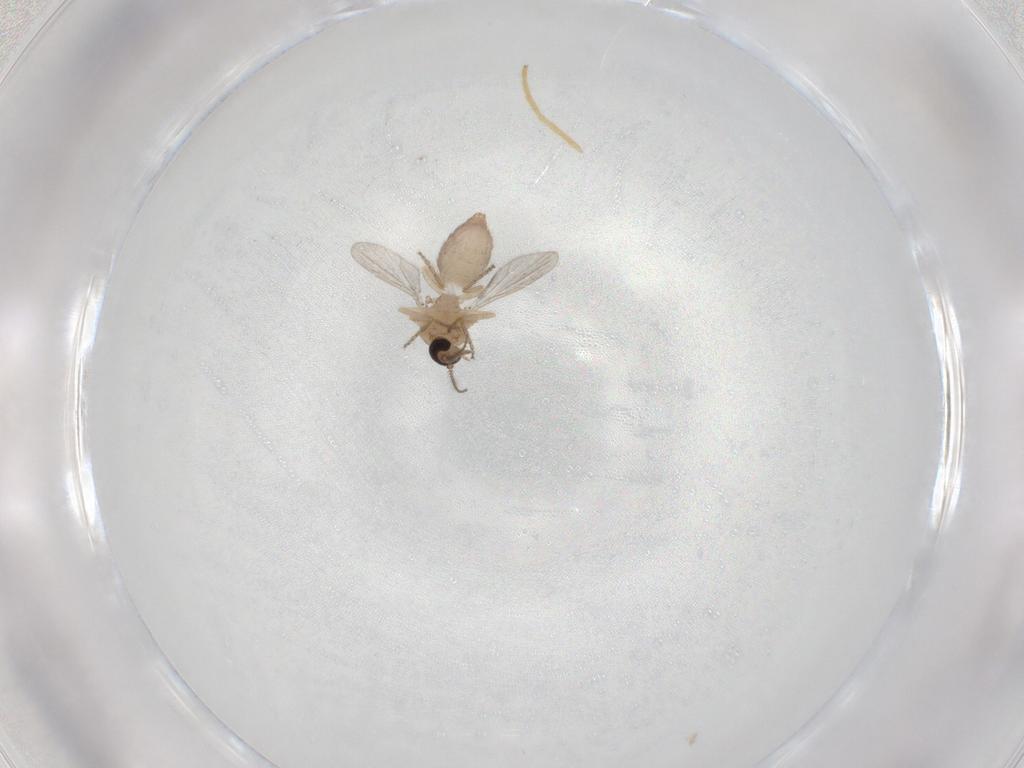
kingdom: Animalia
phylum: Arthropoda
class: Insecta
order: Diptera
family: Ceratopogonidae
